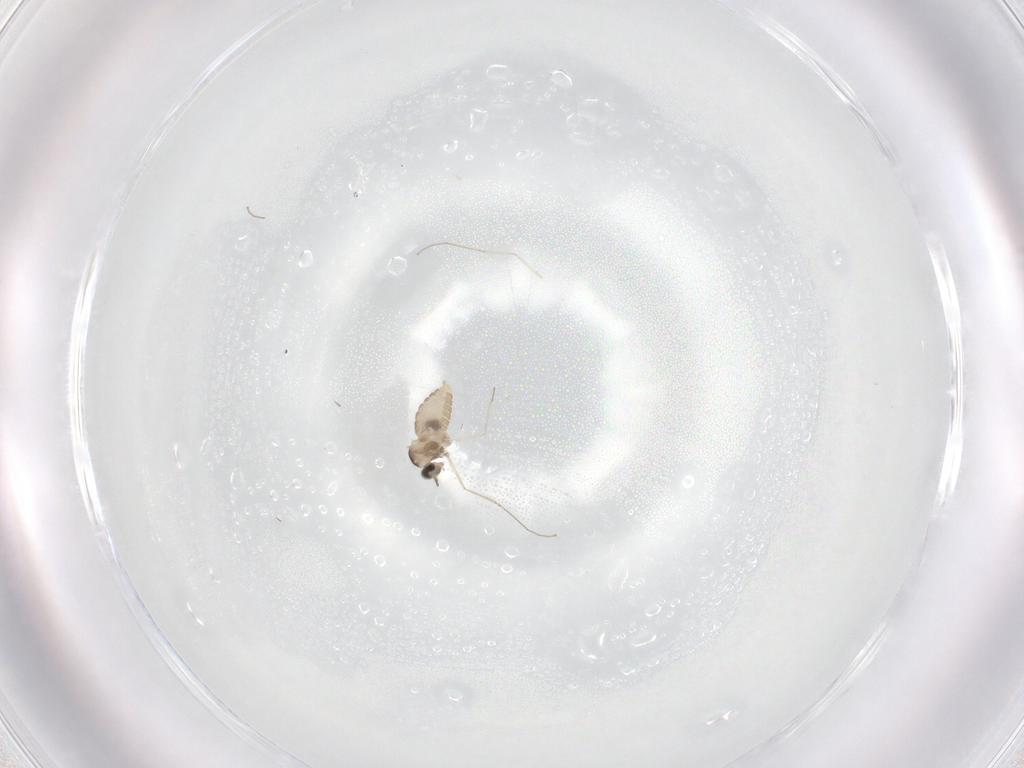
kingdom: Animalia
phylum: Arthropoda
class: Insecta
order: Diptera
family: Cecidomyiidae
